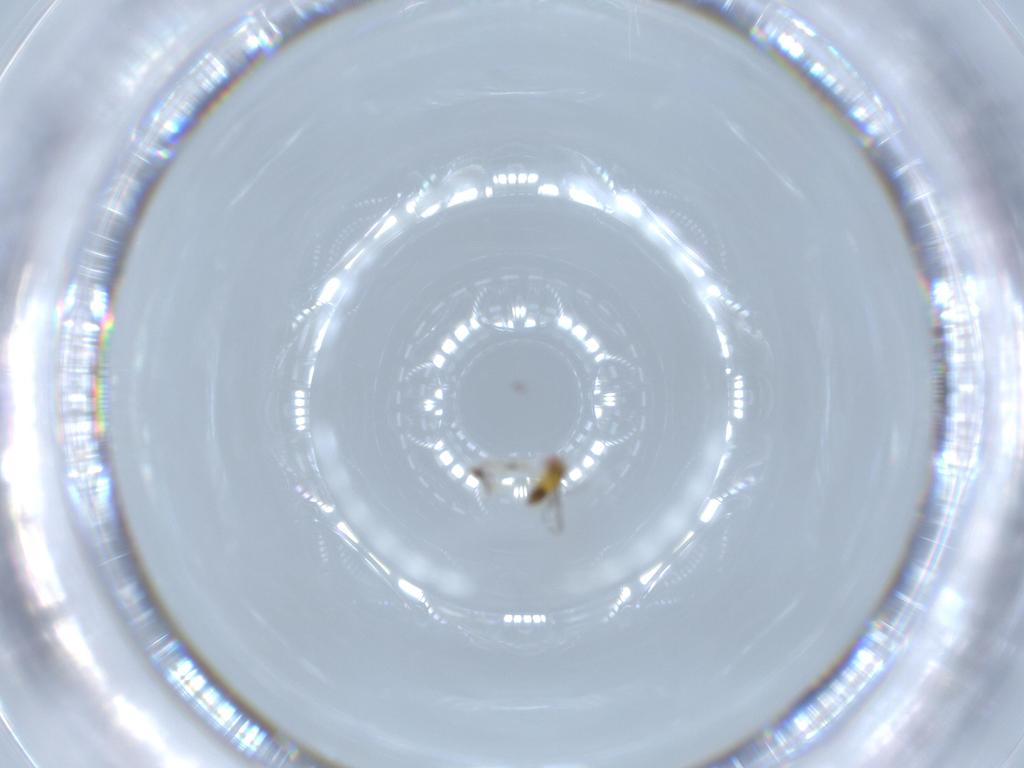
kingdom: Animalia
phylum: Arthropoda
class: Insecta
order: Hymenoptera
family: Trichogrammatidae
